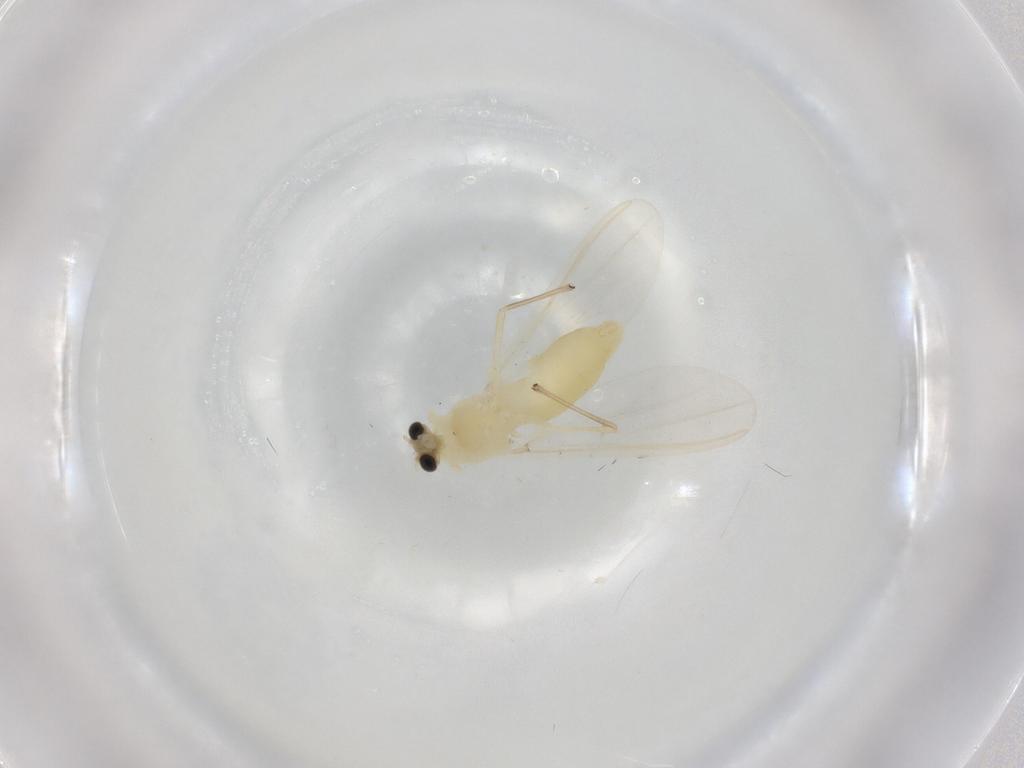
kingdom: Animalia
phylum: Arthropoda
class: Insecta
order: Diptera
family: Chironomidae
